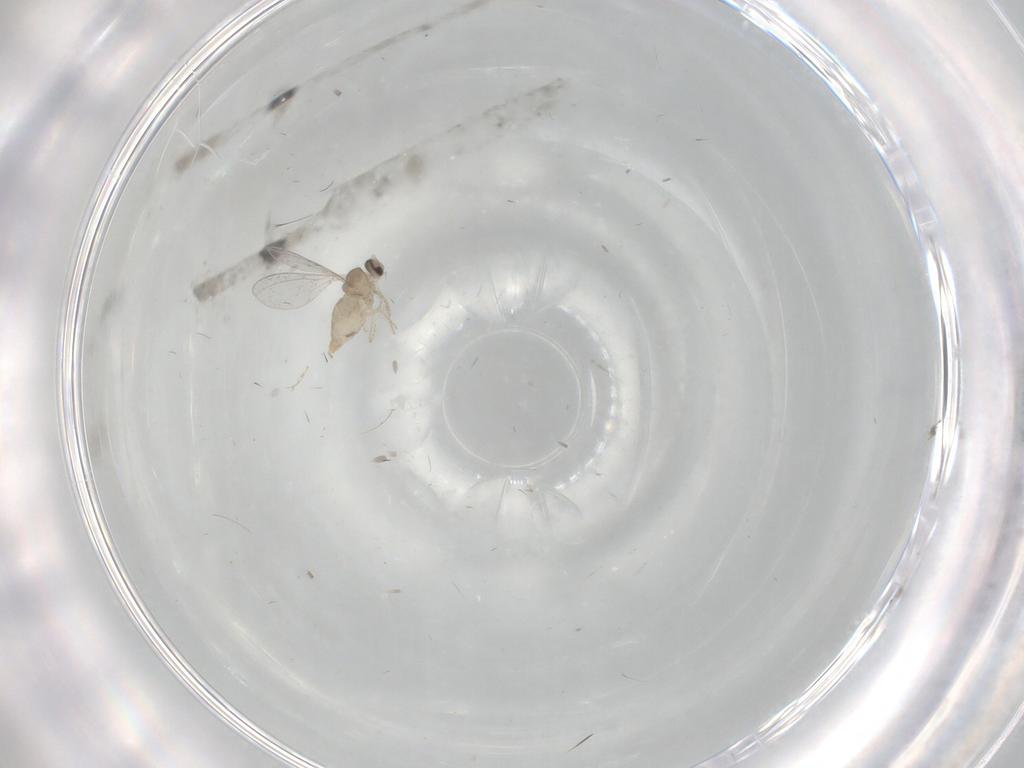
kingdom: Animalia
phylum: Arthropoda
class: Insecta
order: Diptera
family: Cecidomyiidae
